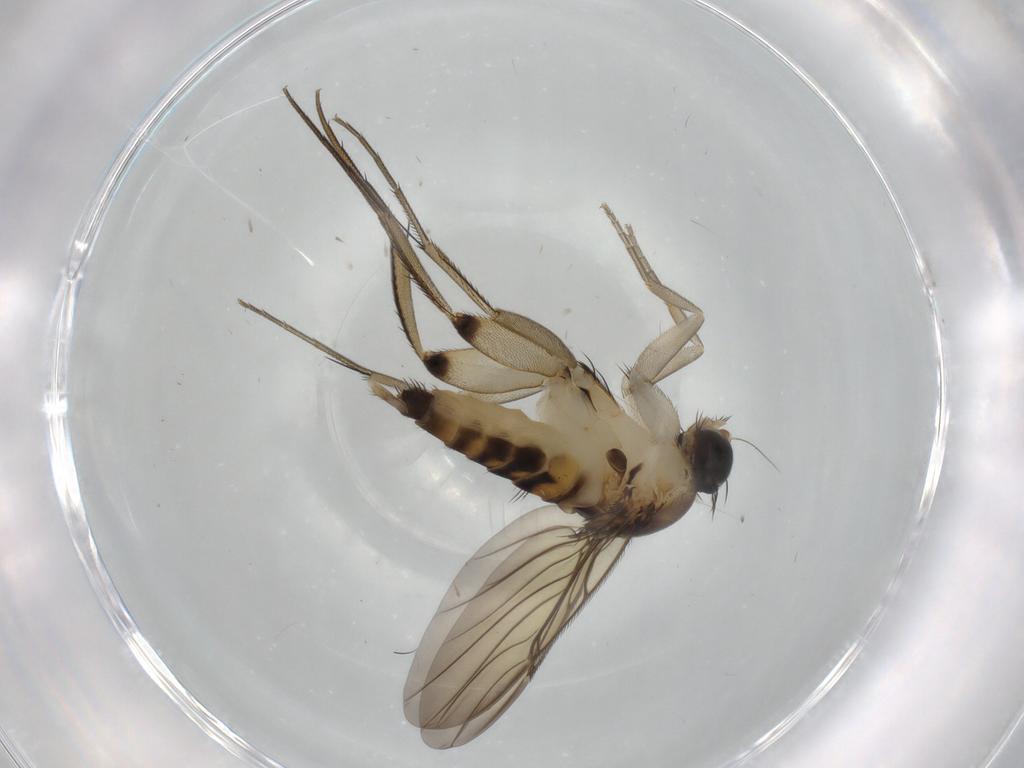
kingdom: Animalia
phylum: Arthropoda
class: Insecta
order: Diptera
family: Phoridae
